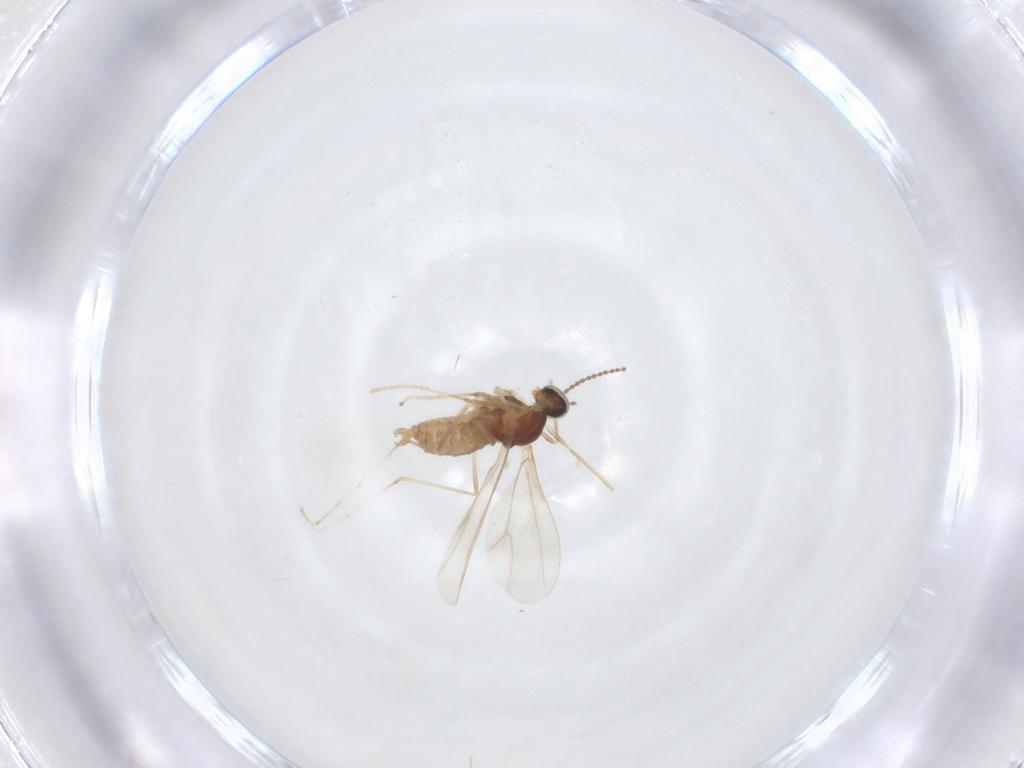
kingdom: Animalia
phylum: Arthropoda
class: Insecta
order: Diptera
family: Cecidomyiidae
